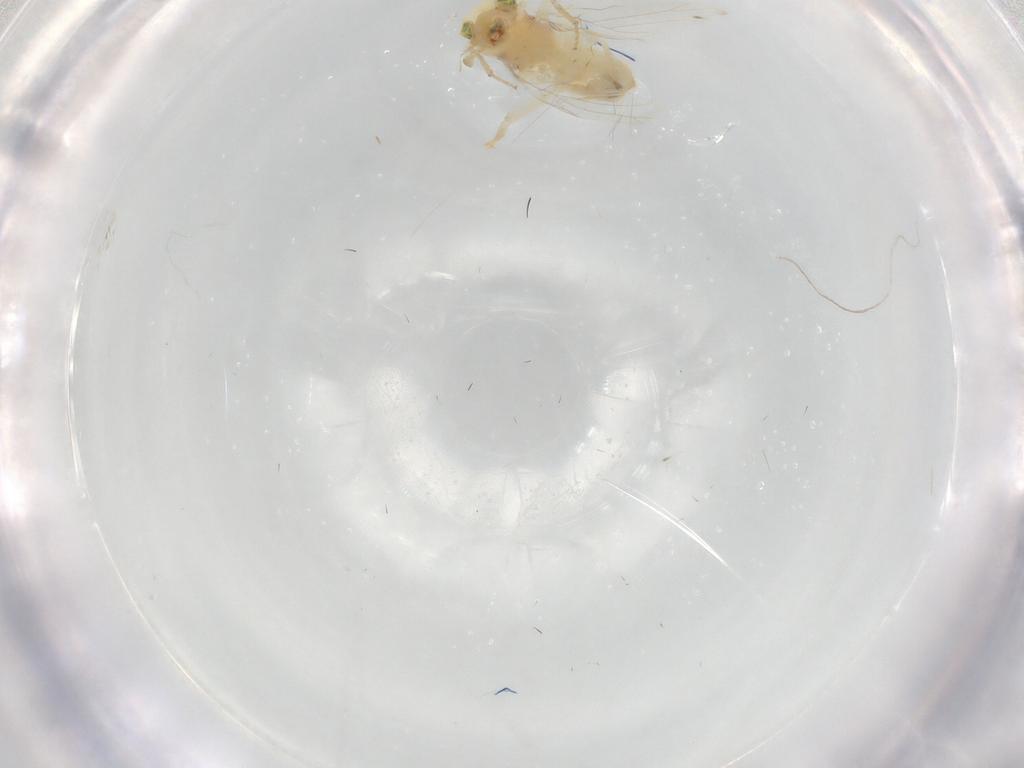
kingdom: Animalia
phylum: Arthropoda
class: Insecta
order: Psocodea
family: Lepidopsocidae
